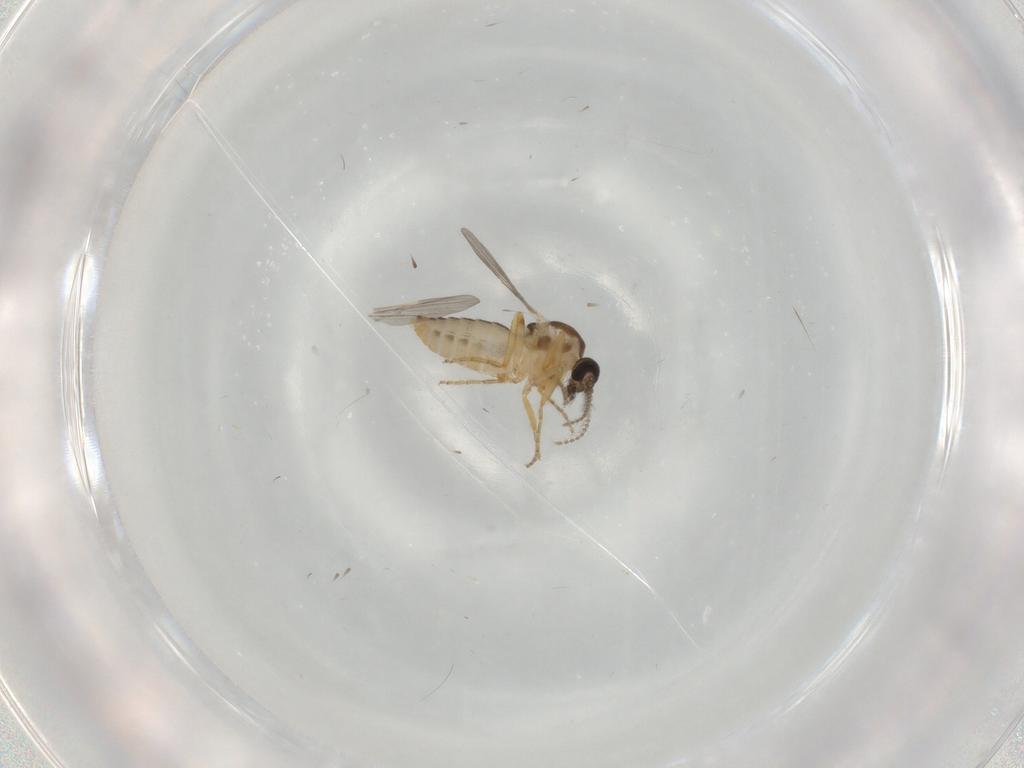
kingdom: Animalia
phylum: Arthropoda
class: Insecta
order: Diptera
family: Ceratopogonidae
